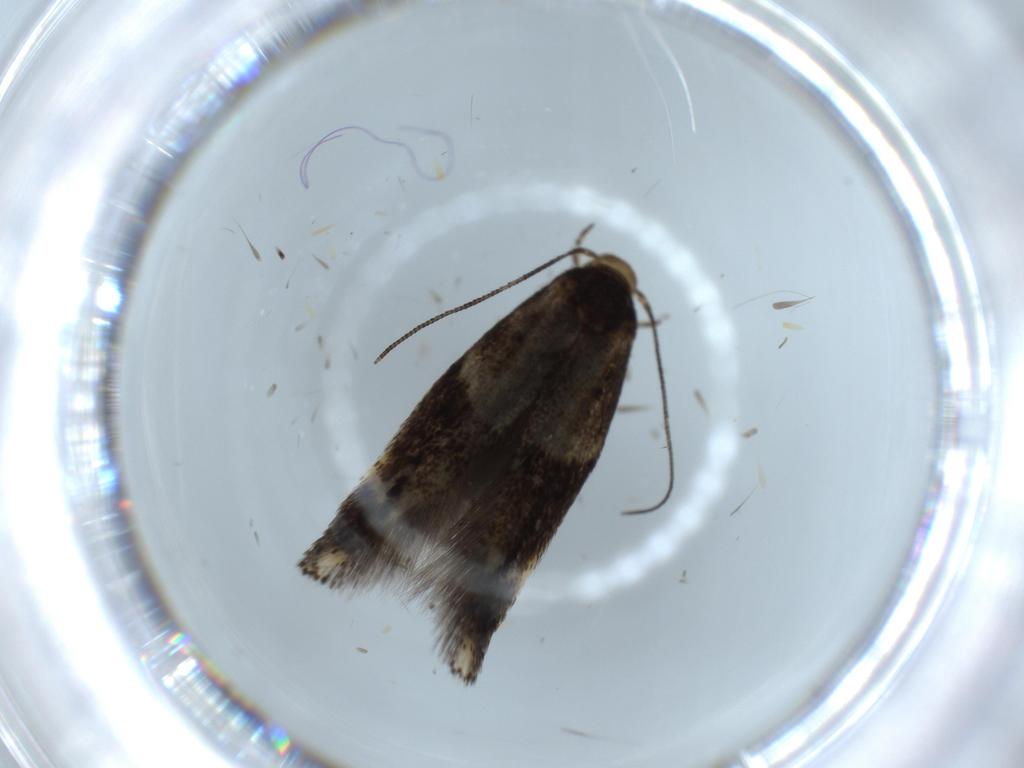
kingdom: Animalia
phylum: Arthropoda
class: Insecta
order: Lepidoptera
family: Elachistidae
